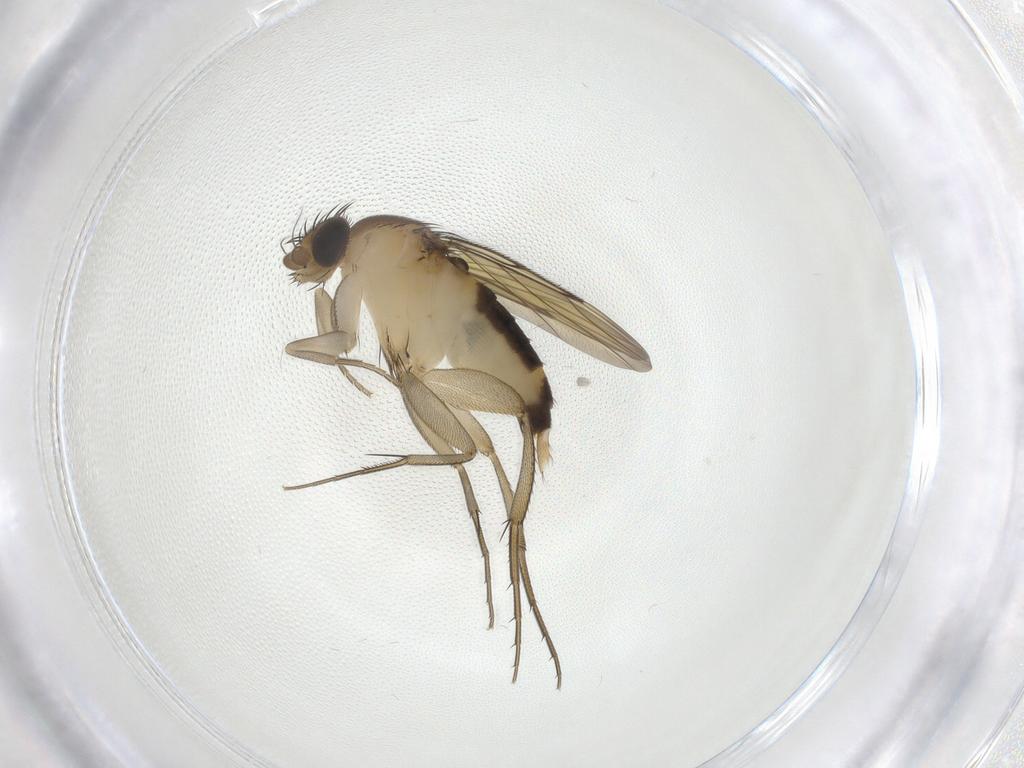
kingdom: Animalia
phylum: Arthropoda
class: Insecta
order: Diptera
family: Phoridae
